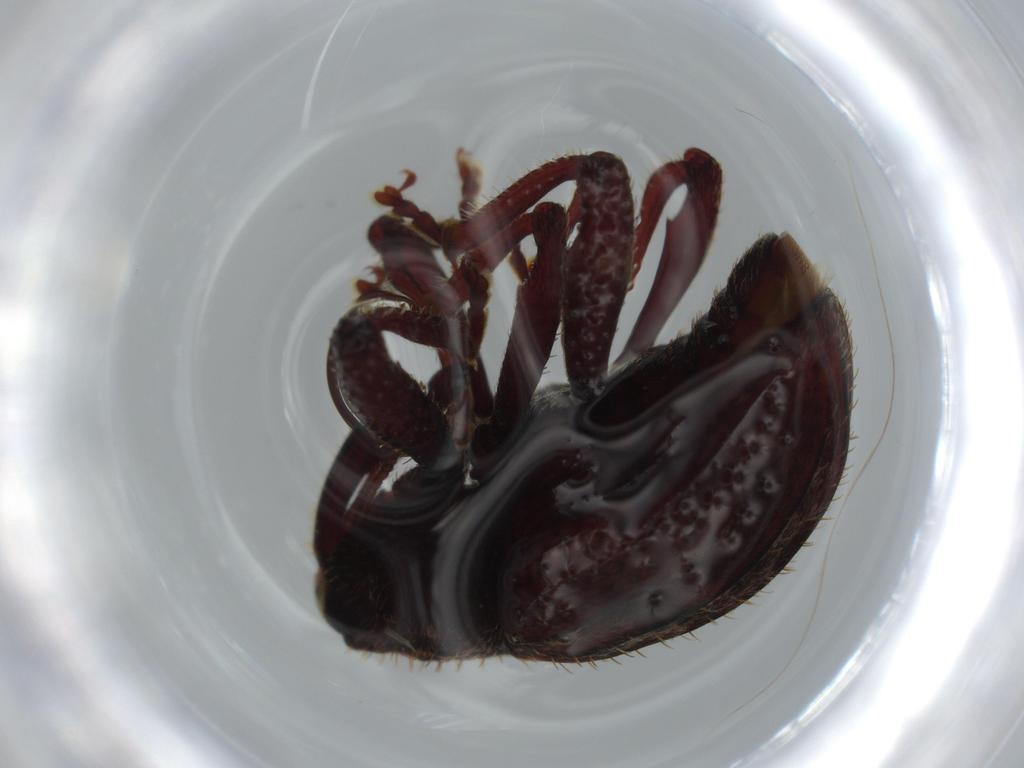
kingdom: Animalia
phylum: Arthropoda
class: Insecta
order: Coleoptera
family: Curculionidae
